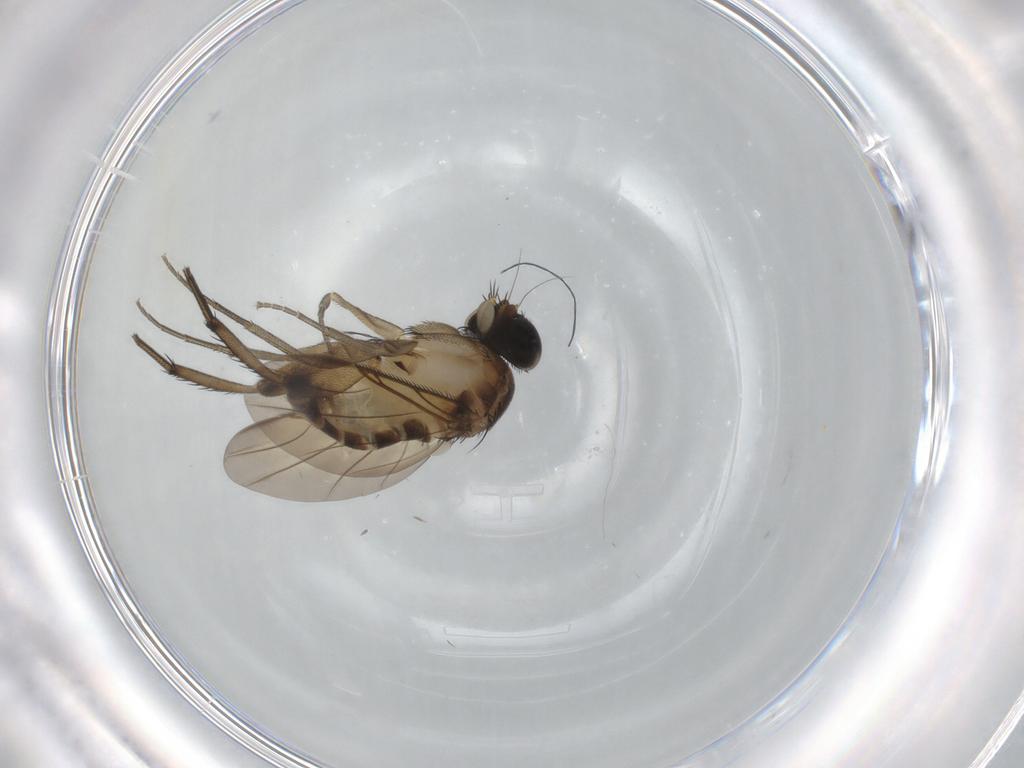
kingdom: Animalia
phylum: Arthropoda
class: Insecta
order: Diptera
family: Phoridae
